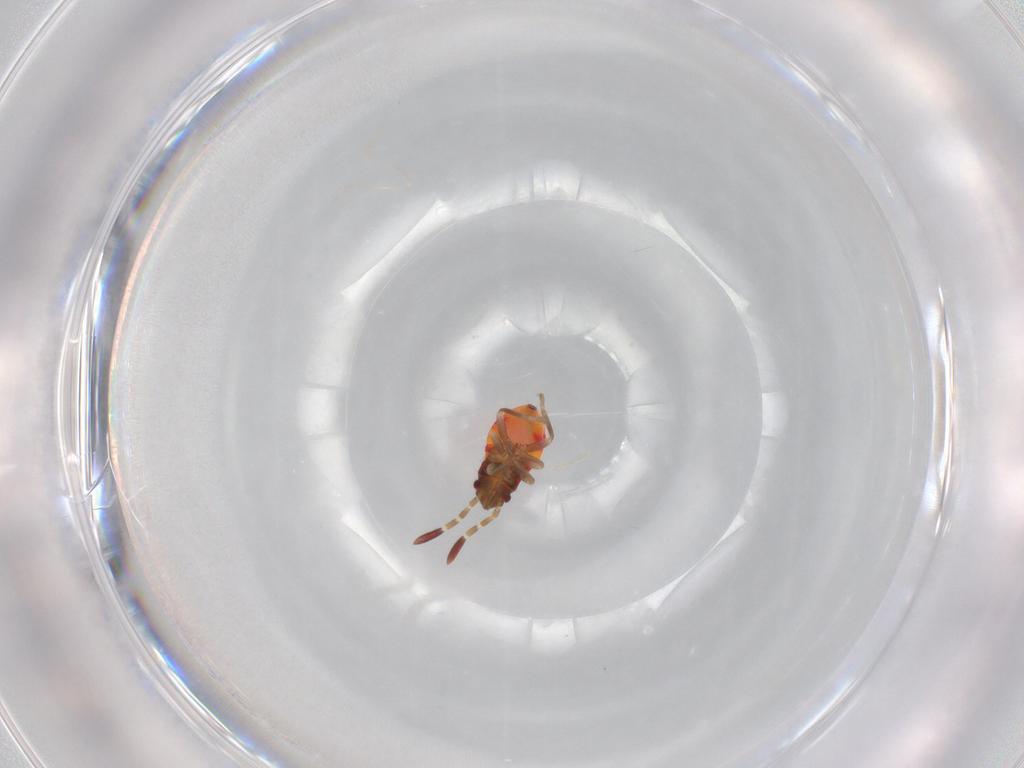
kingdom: Animalia
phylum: Arthropoda
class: Insecta
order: Hemiptera
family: Rhyparochromidae
